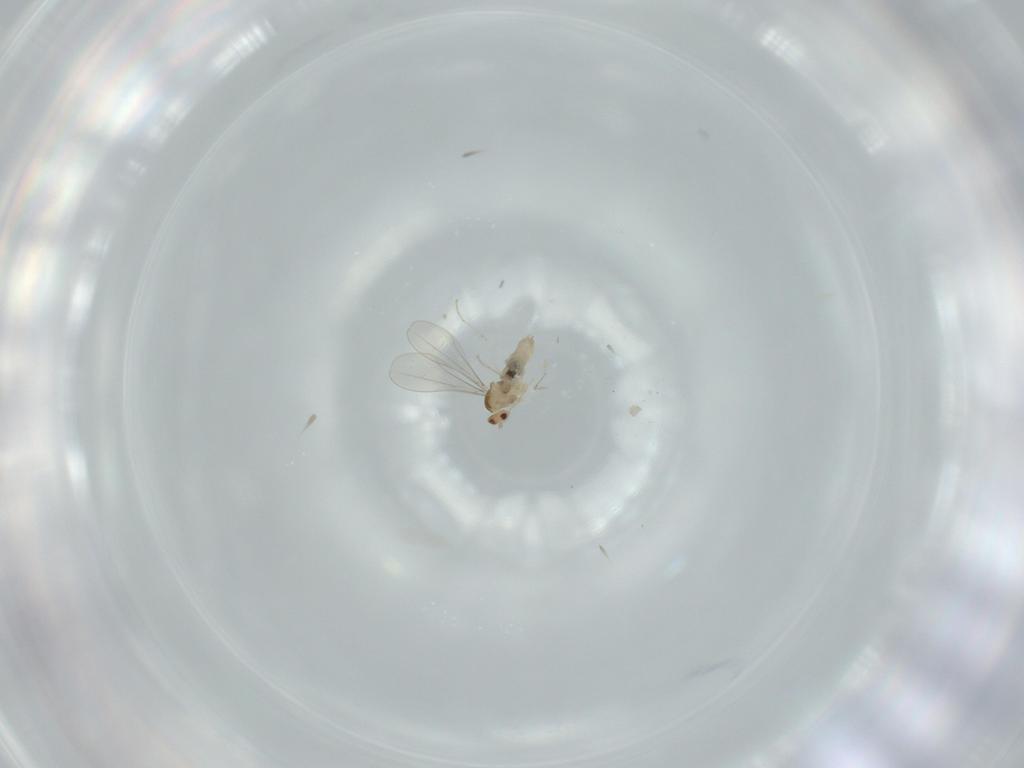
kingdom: Animalia
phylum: Arthropoda
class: Insecta
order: Diptera
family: Cecidomyiidae
